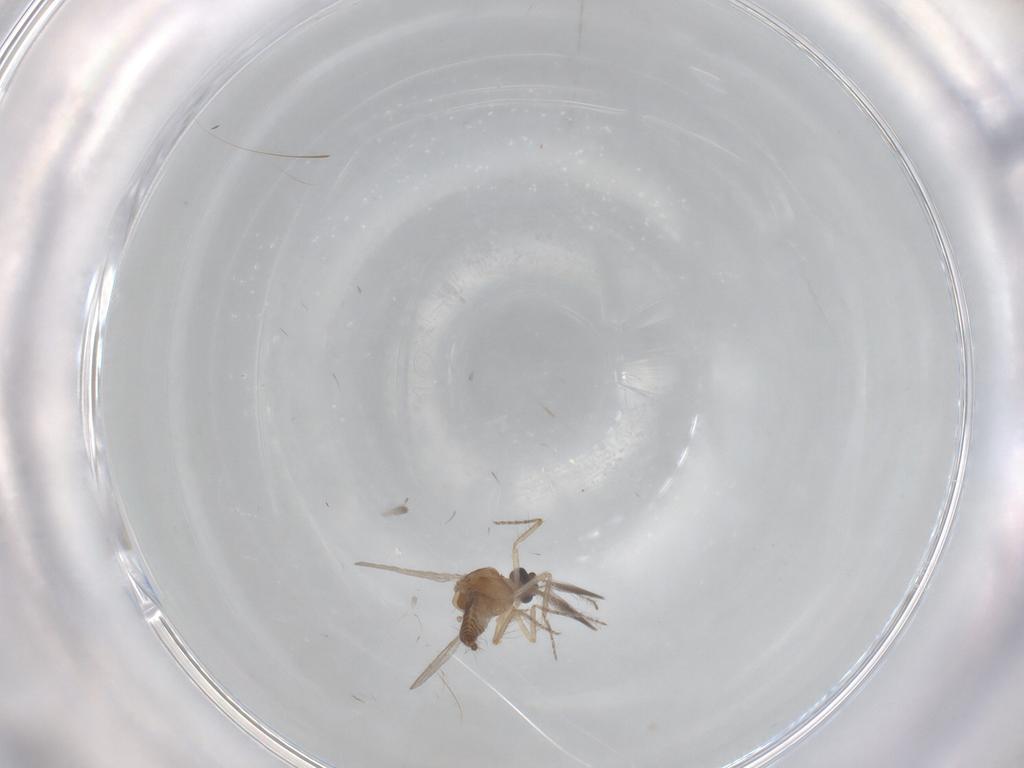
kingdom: Animalia
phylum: Arthropoda
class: Insecta
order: Diptera
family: Ceratopogonidae
